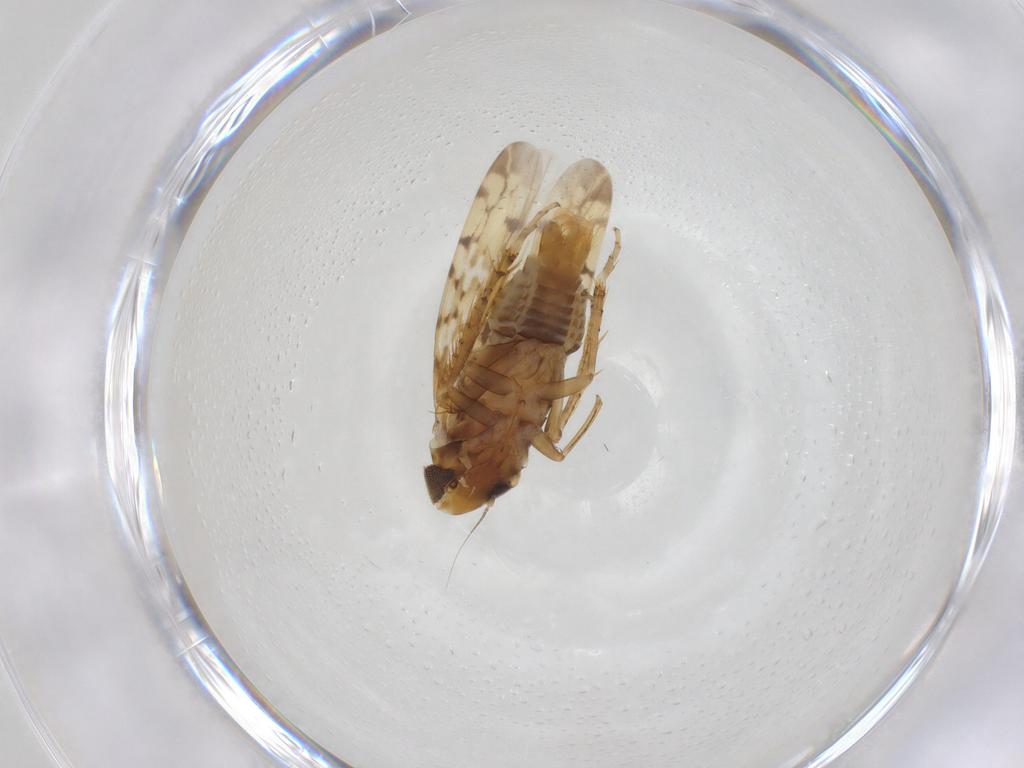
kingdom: Animalia
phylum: Arthropoda
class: Insecta
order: Hemiptera
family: Cicadellidae
